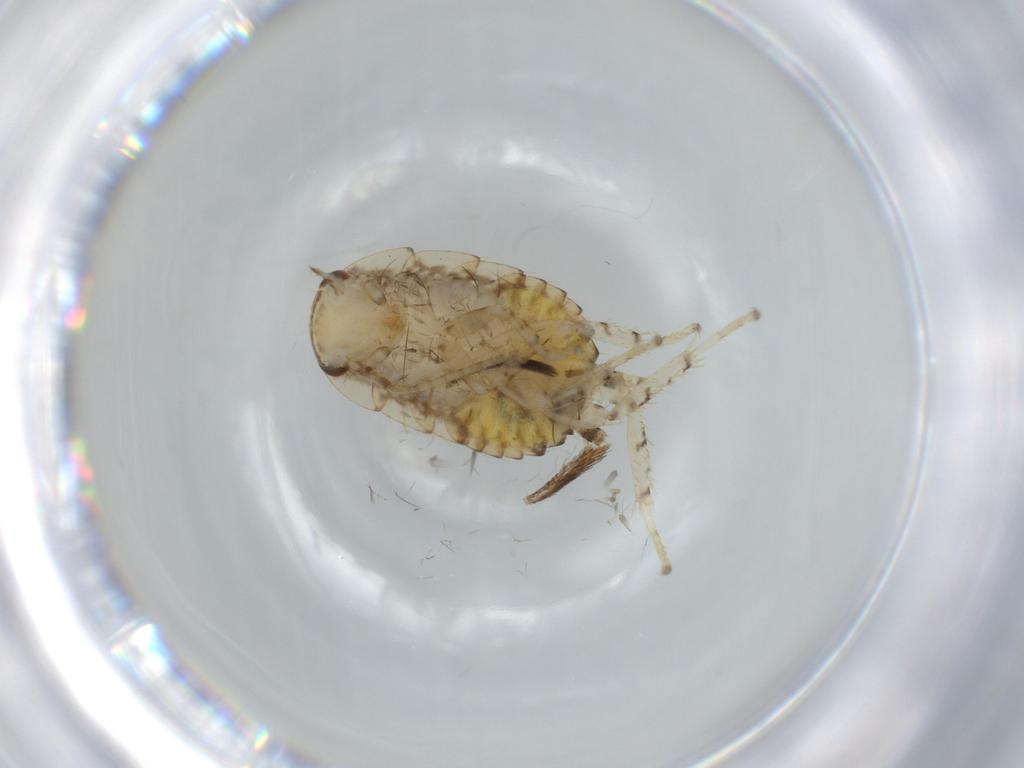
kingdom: Animalia
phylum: Arthropoda
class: Insecta
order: Blattodea
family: Ectobiidae
